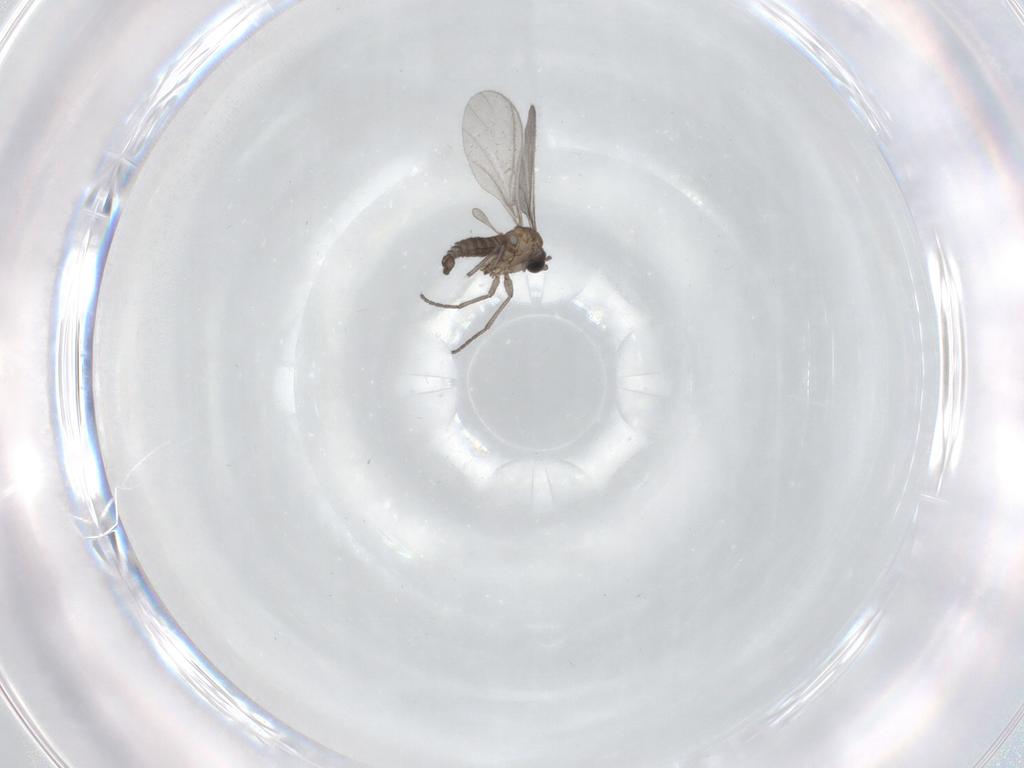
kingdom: Animalia
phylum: Arthropoda
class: Insecta
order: Diptera
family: Sciaridae
